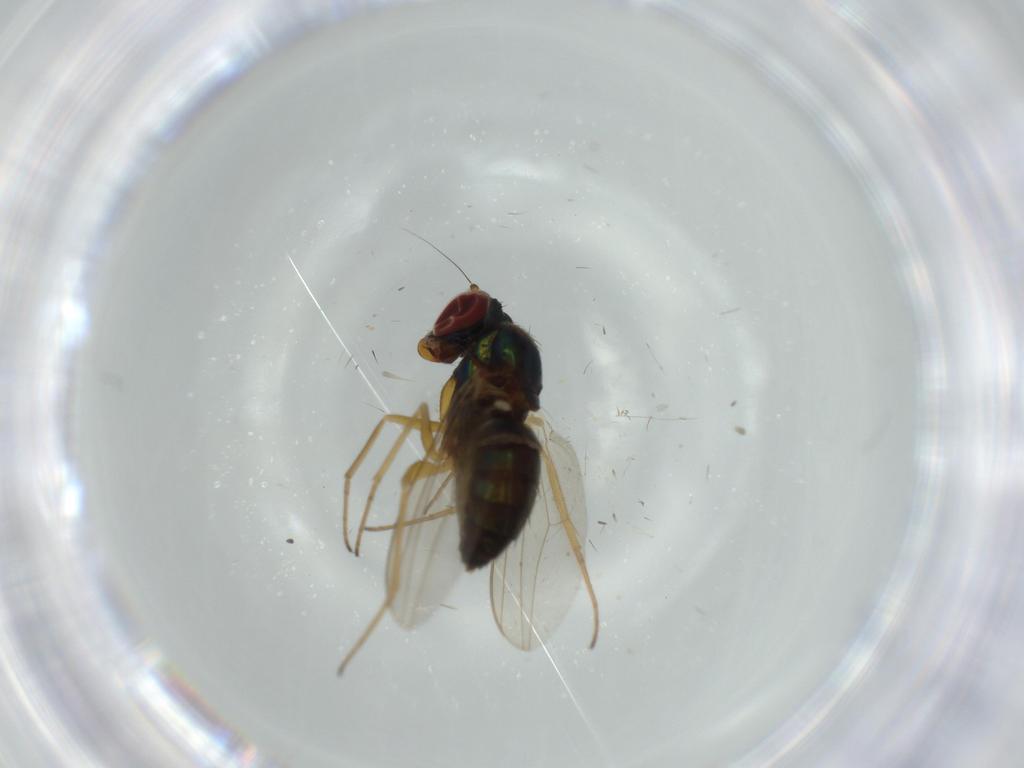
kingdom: Animalia
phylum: Arthropoda
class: Insecta
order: Diptera
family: Dolichopodidae
